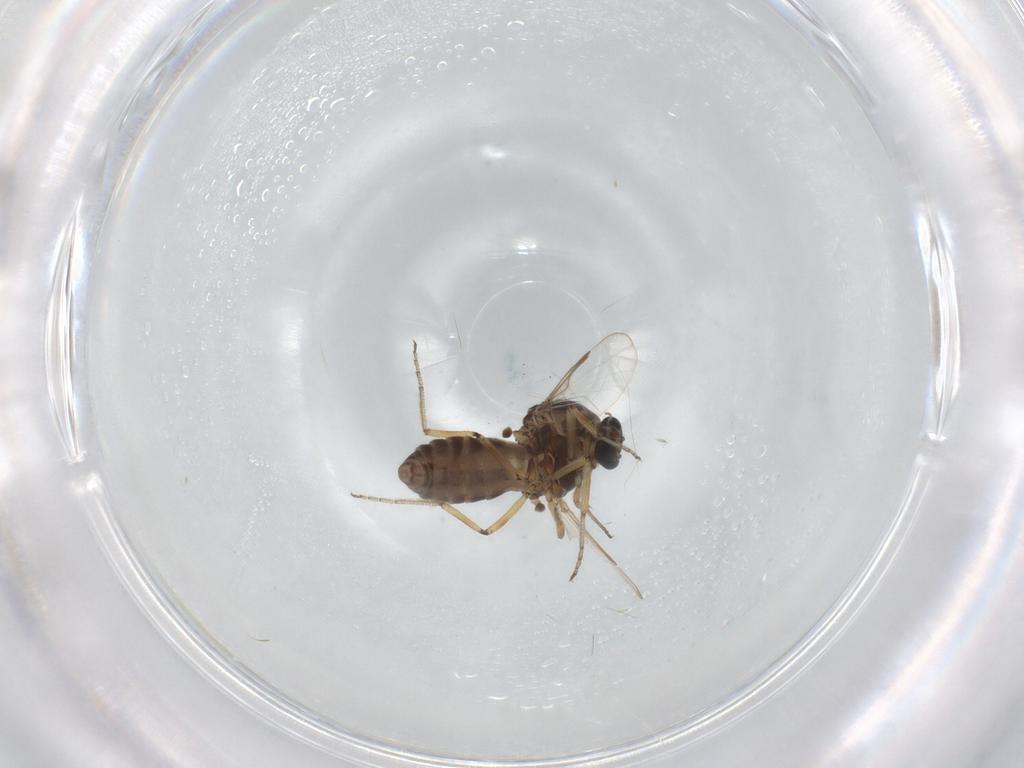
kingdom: Animalia
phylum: Arthropoda
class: Insecta
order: Diptera
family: Ceratopogonidae
